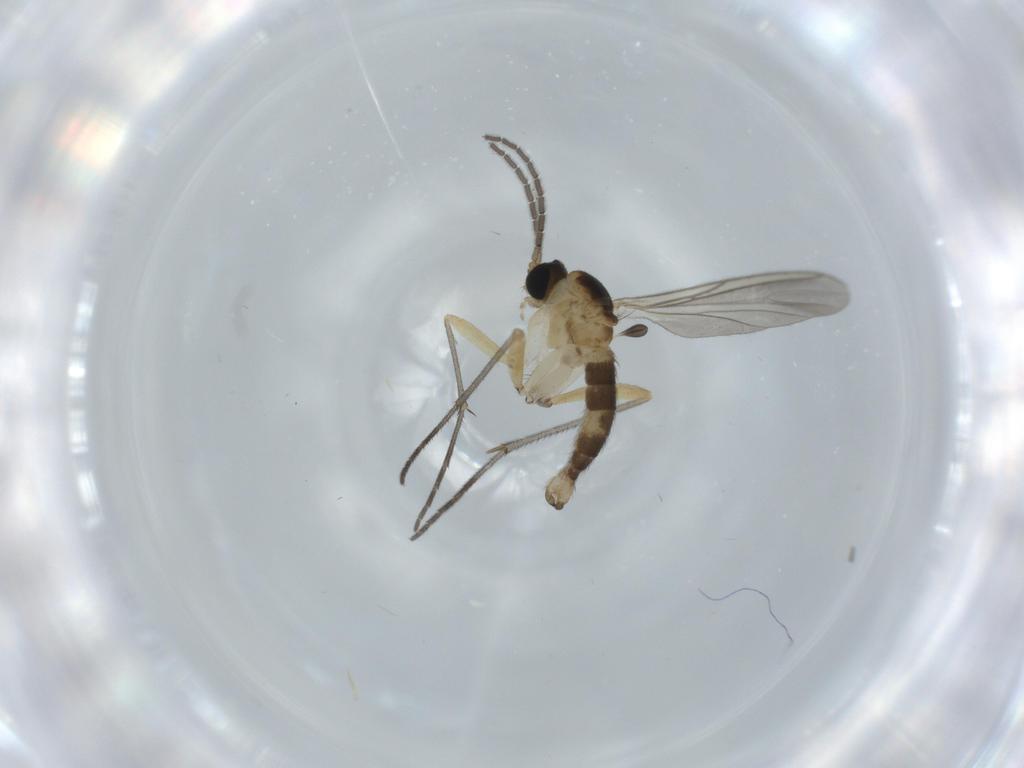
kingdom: Animalia
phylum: Arthropoda
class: Insecta
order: Diptera
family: Sciaridae
